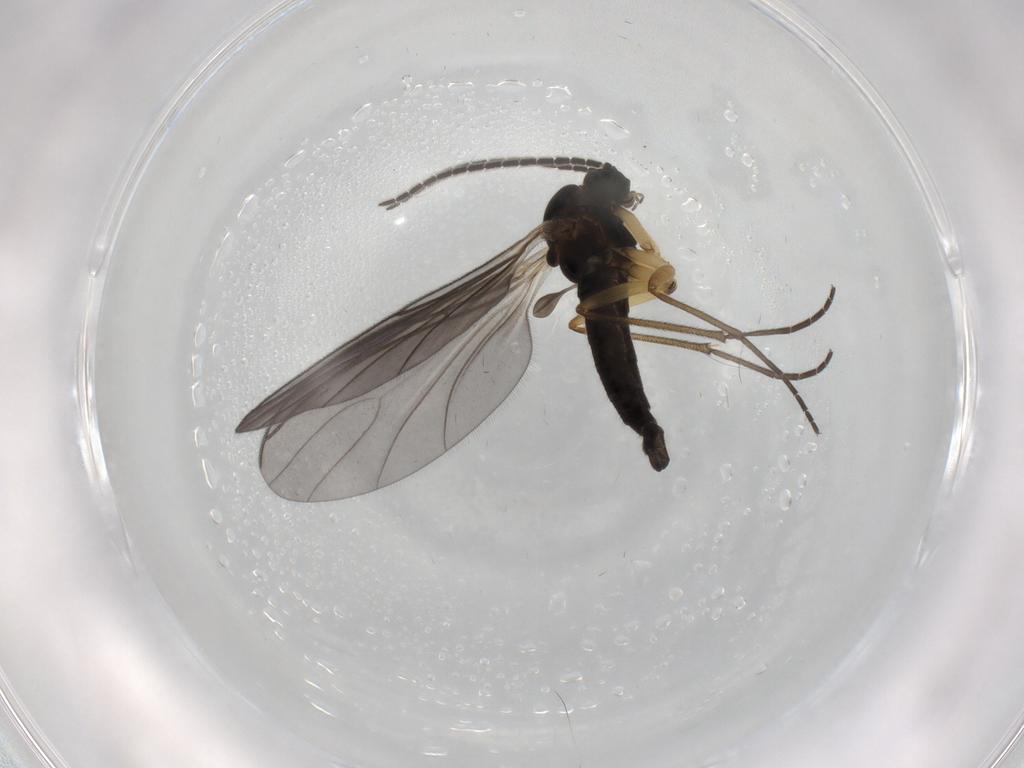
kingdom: Animalia
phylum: Arthropoda
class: Insecta
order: Diptera
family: Sciaridae
